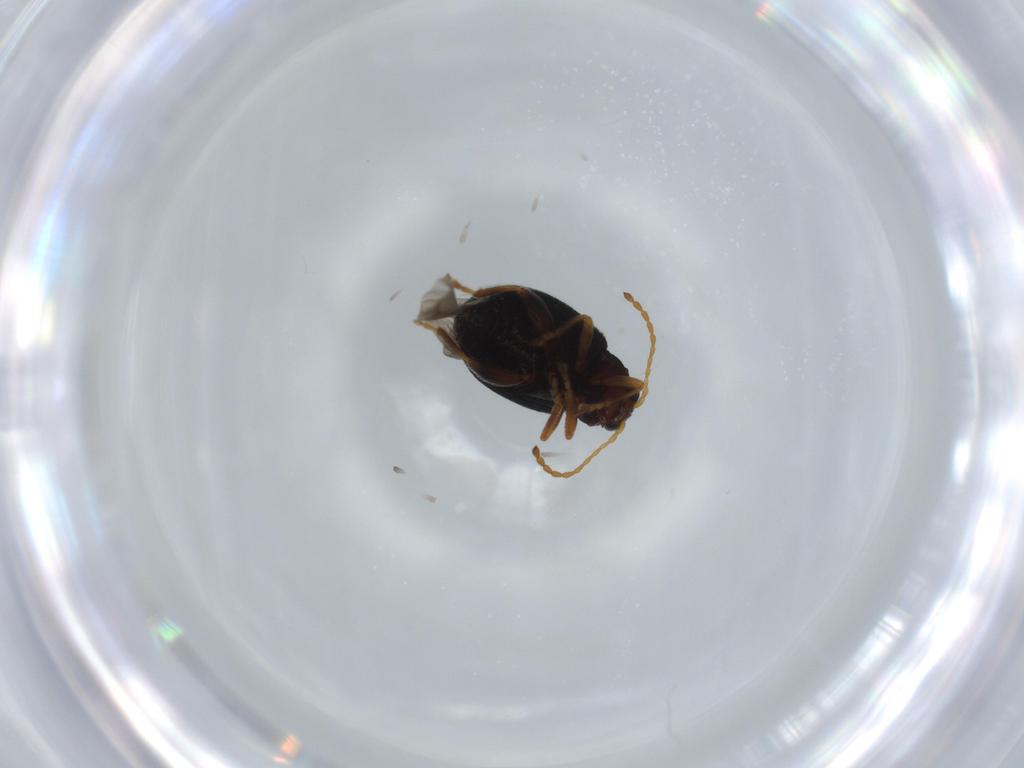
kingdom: Animalia
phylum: Arthropoda
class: Insecta
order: Coleoptera
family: Chrysomelidae
